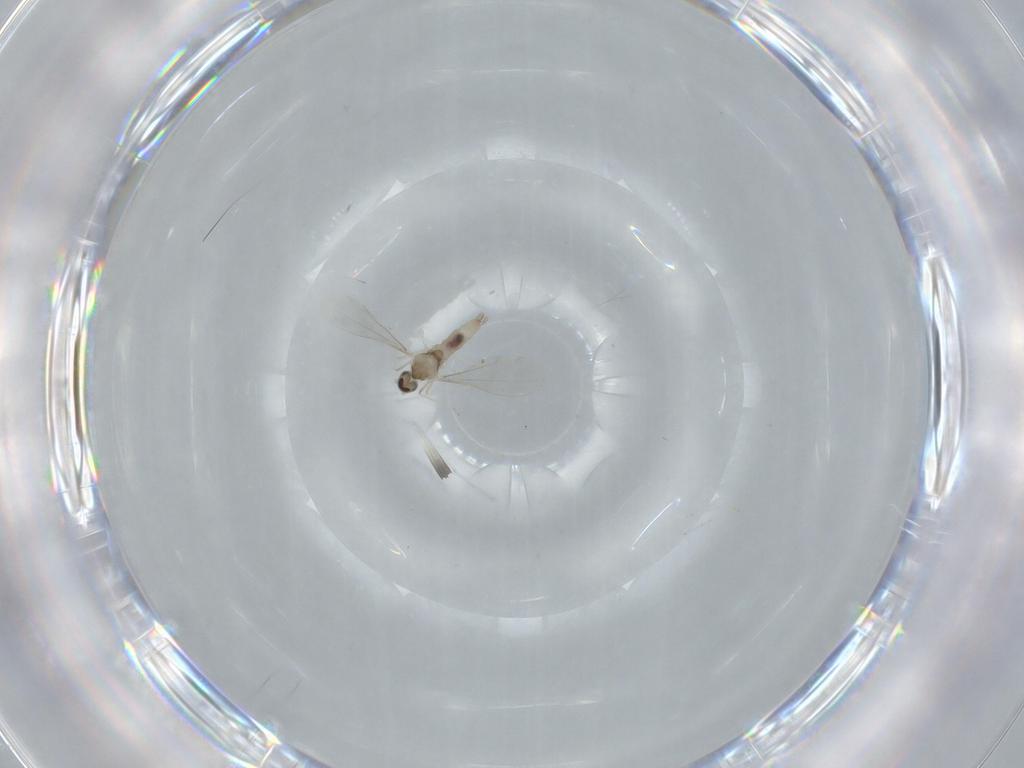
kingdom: Animalia
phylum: Arthropoda
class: Insecta
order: Diptera
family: Cecidomyiidae
